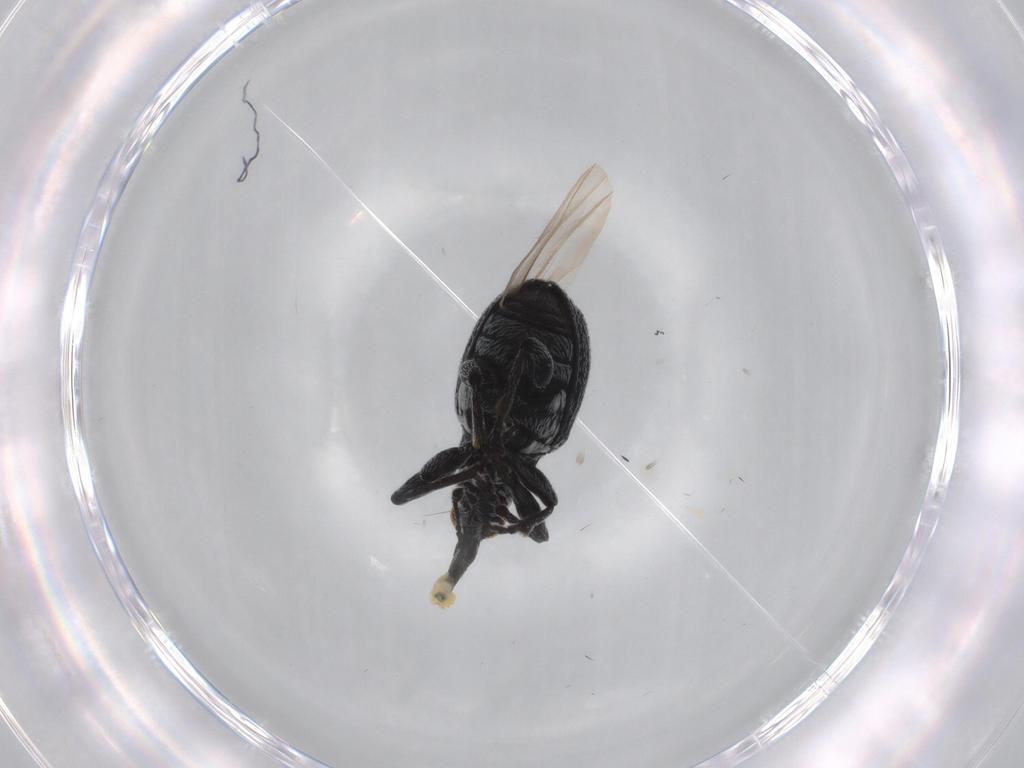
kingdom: Animalia
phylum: Arthropoda
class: Insecta
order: Coleoptera
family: Brentidae
